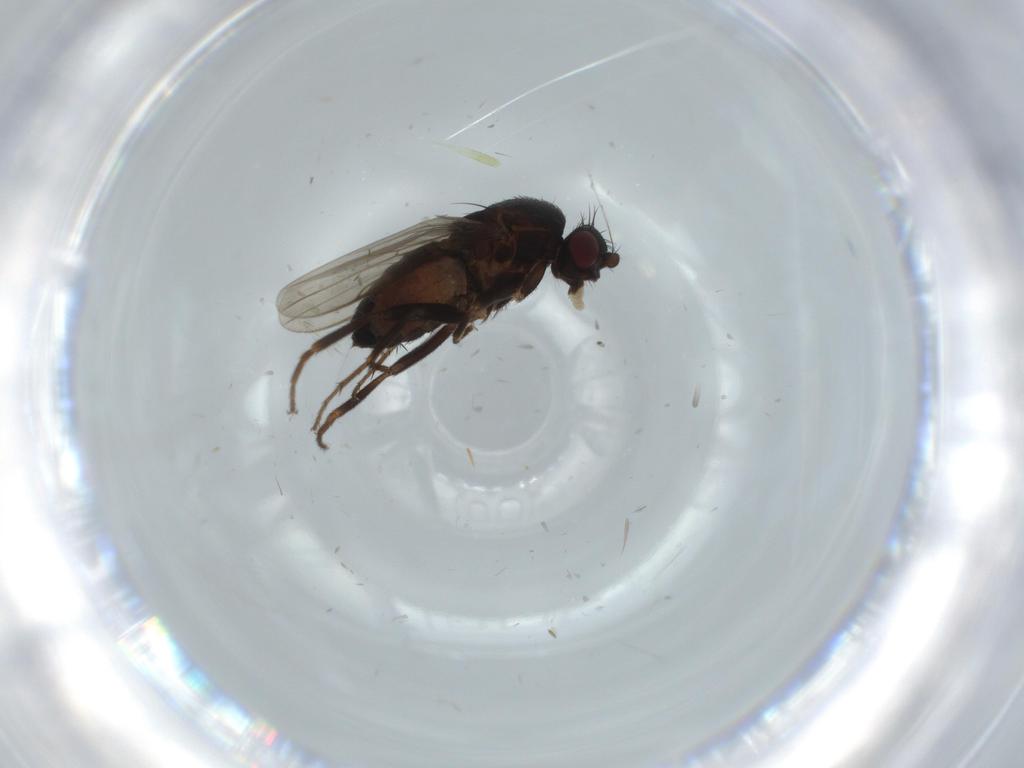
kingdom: Animalia
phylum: Arthropoda
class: Insecta
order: Diptera
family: Sphaeroceridae
